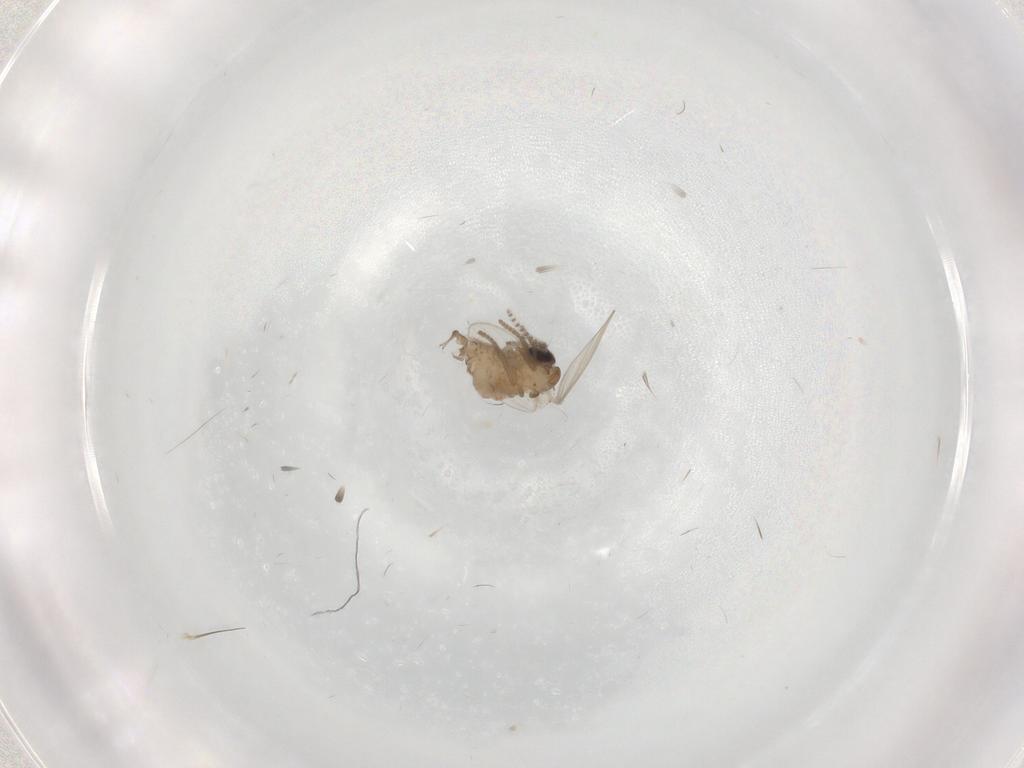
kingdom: Animalia
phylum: Arthropoda
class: Insecta
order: Diptera
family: Psychodidae
